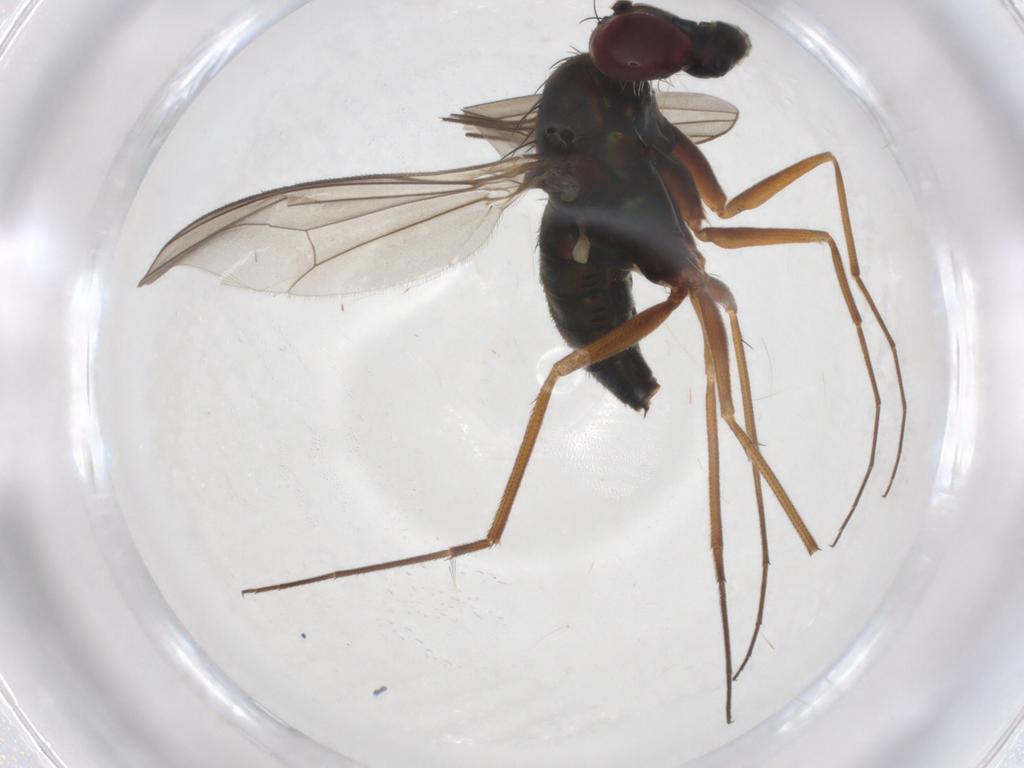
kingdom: Animalia
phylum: Arthropoda
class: Insecta
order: Diptera
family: Dolichopodidae
